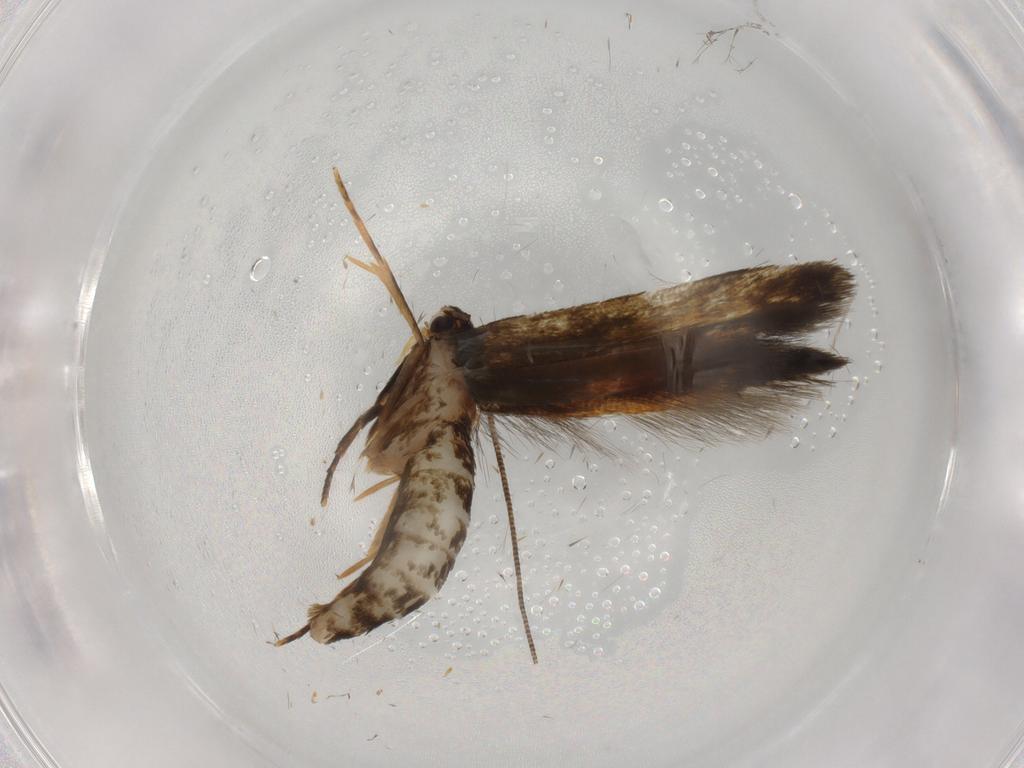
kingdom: Animalia
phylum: Arthropoda
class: Insecta
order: Lepidoptera
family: Tineidae
